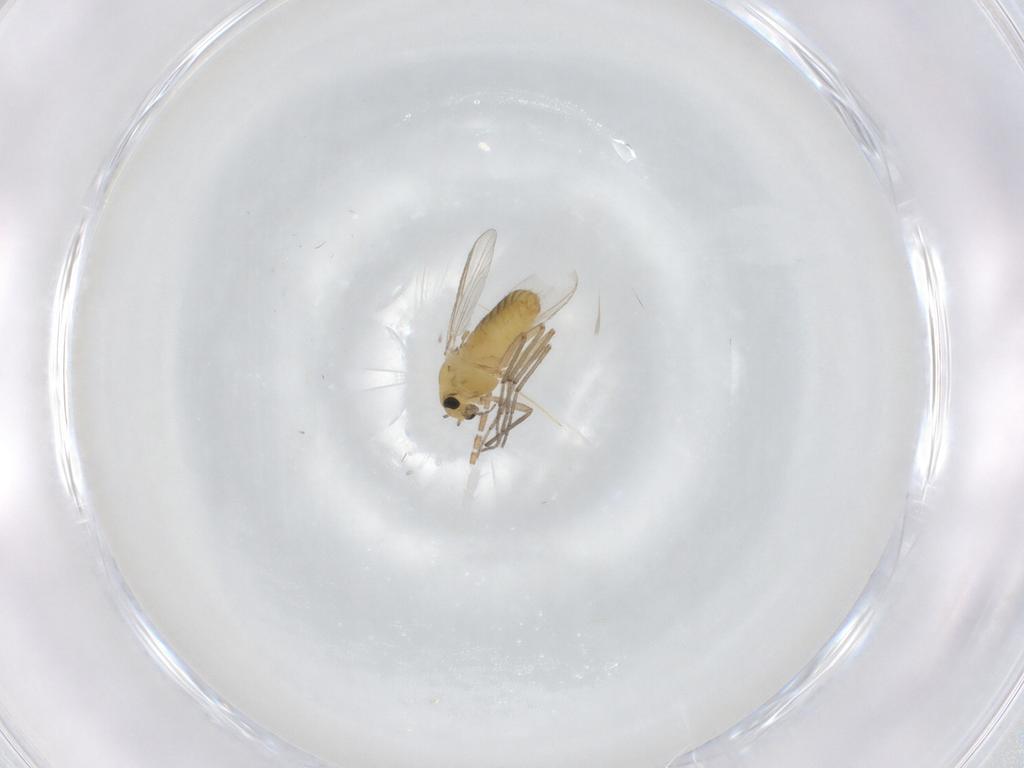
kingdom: Animalia
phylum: Arthropoda
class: Insecta
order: Diptera
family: Chironomidae
